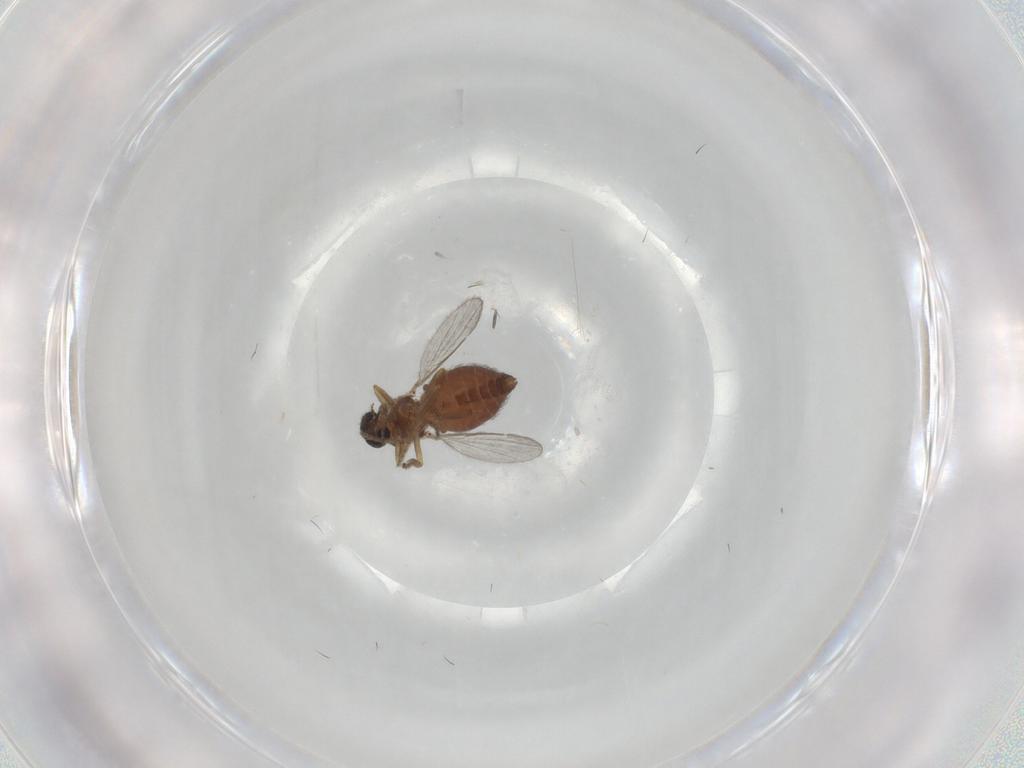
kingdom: Animalia
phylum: Arthropoda
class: Insecta
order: Diptera
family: Ceratopogonidae
